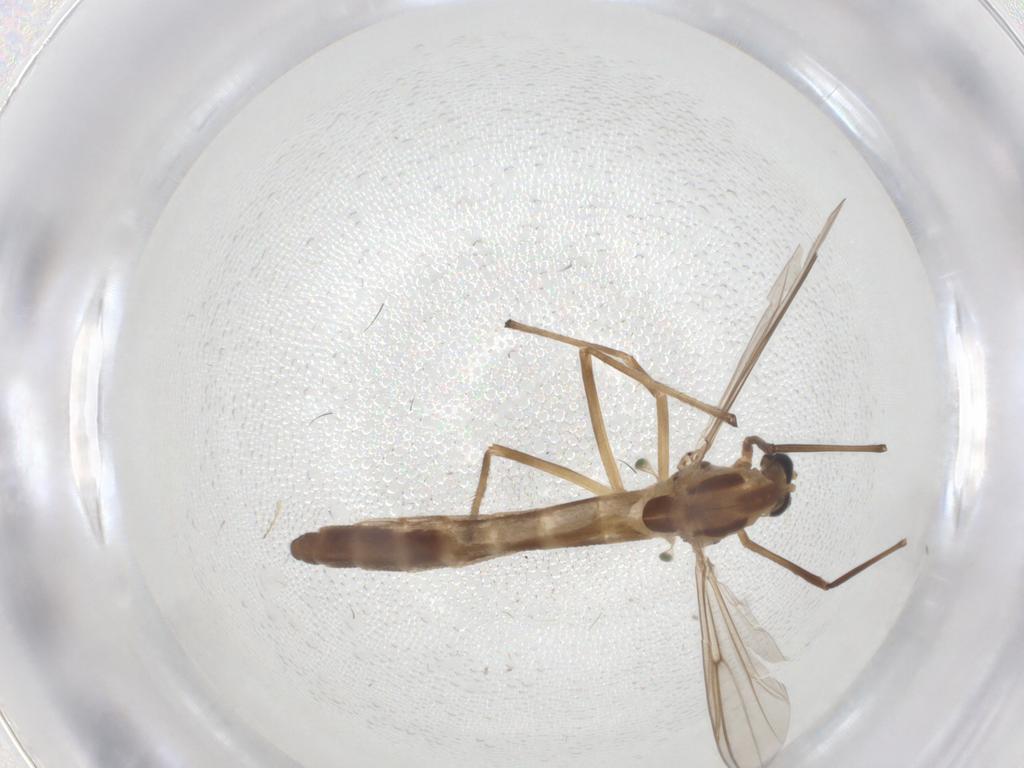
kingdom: Animalia
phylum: Arthropoda
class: Insecta
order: Diptera
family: Chironomidae
